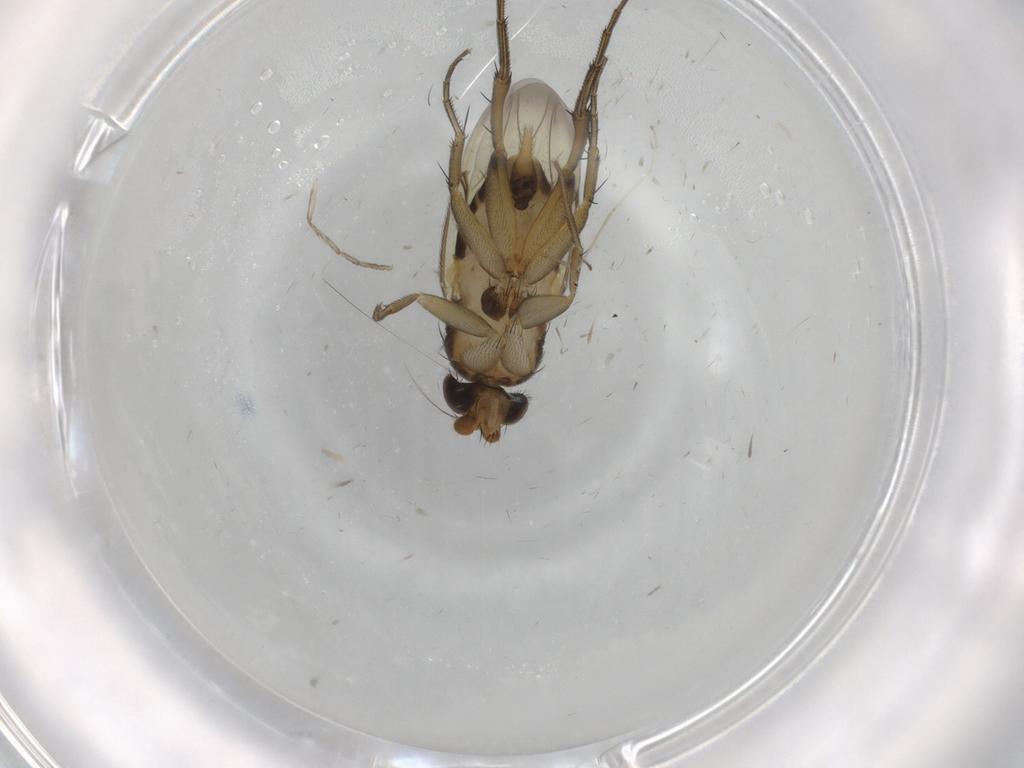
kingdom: Animalia
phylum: Arthropoda
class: Insecta
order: Diptera
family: Phoridae
